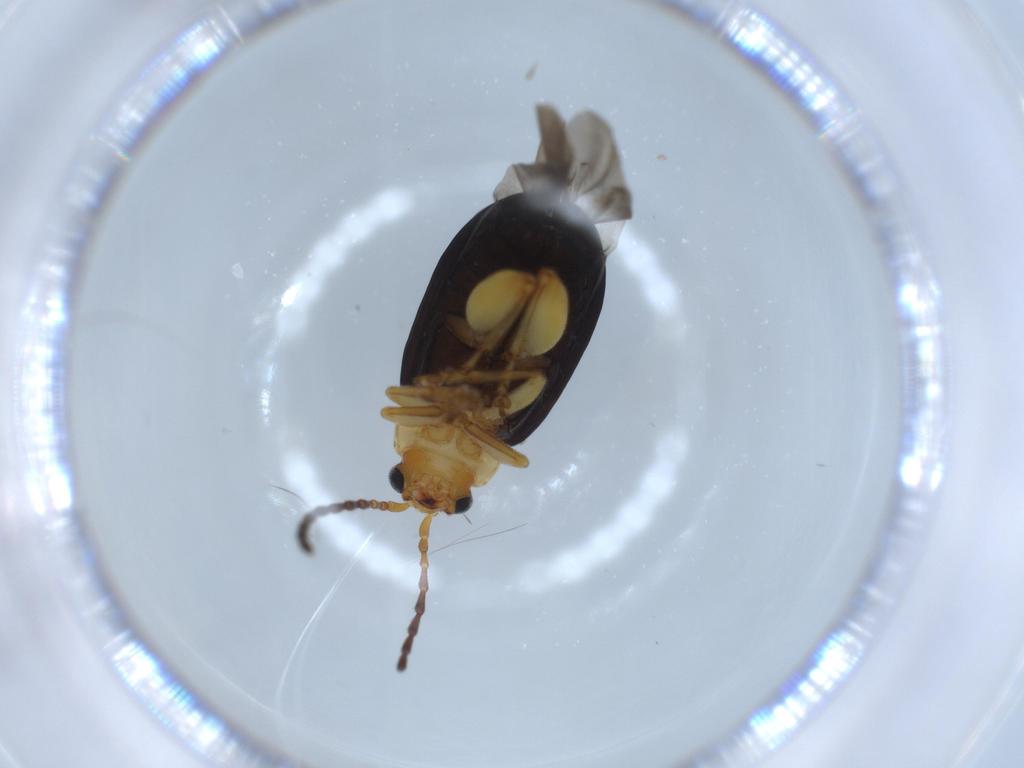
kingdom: Animalia
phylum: Arthropoda
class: Insecta
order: Coleoptera
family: Chrysomelidae
